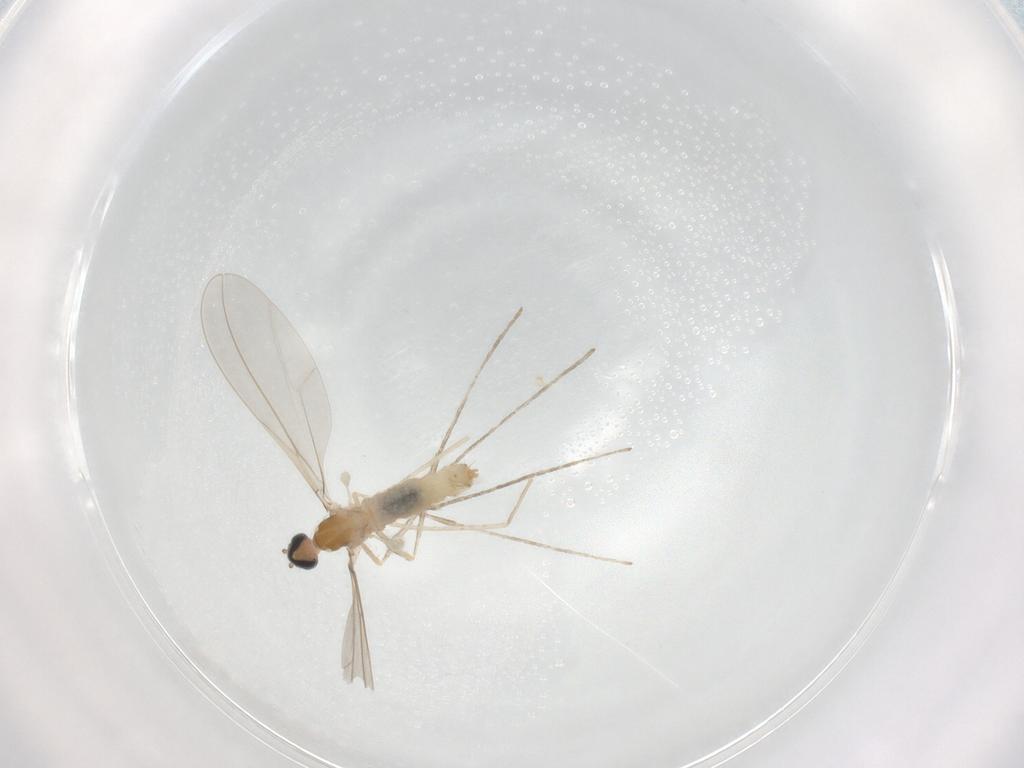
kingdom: Animalia
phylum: Arthropoda
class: Insecta
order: Diptera
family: Cecidomyiidae
